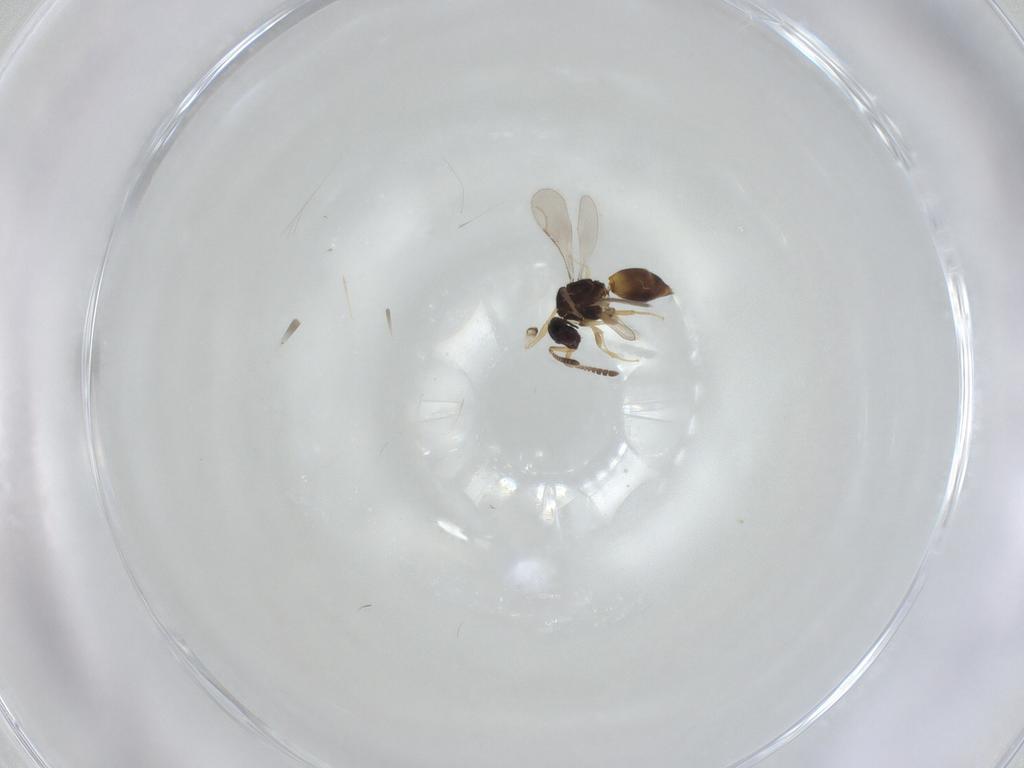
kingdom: Animalia
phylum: Arthropoda
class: Insecta
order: Hymenoptera
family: Ceraphronidae
